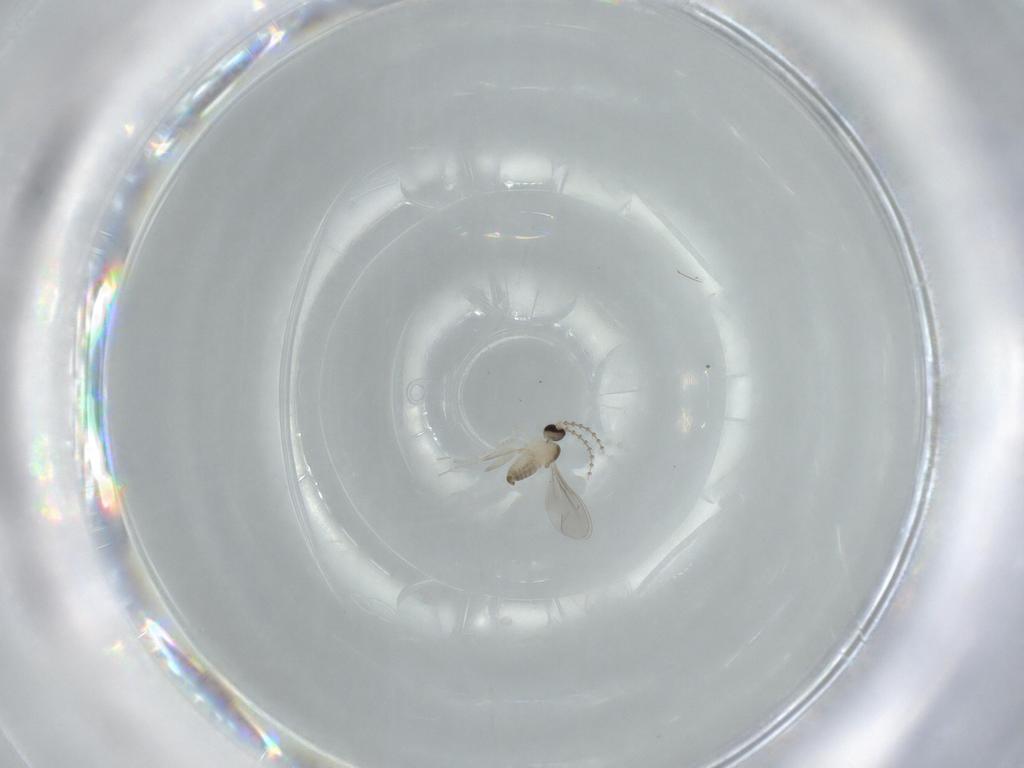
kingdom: Animalia
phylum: Arthropoda
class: Insecta
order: Diptera
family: Cecidomyiidae
